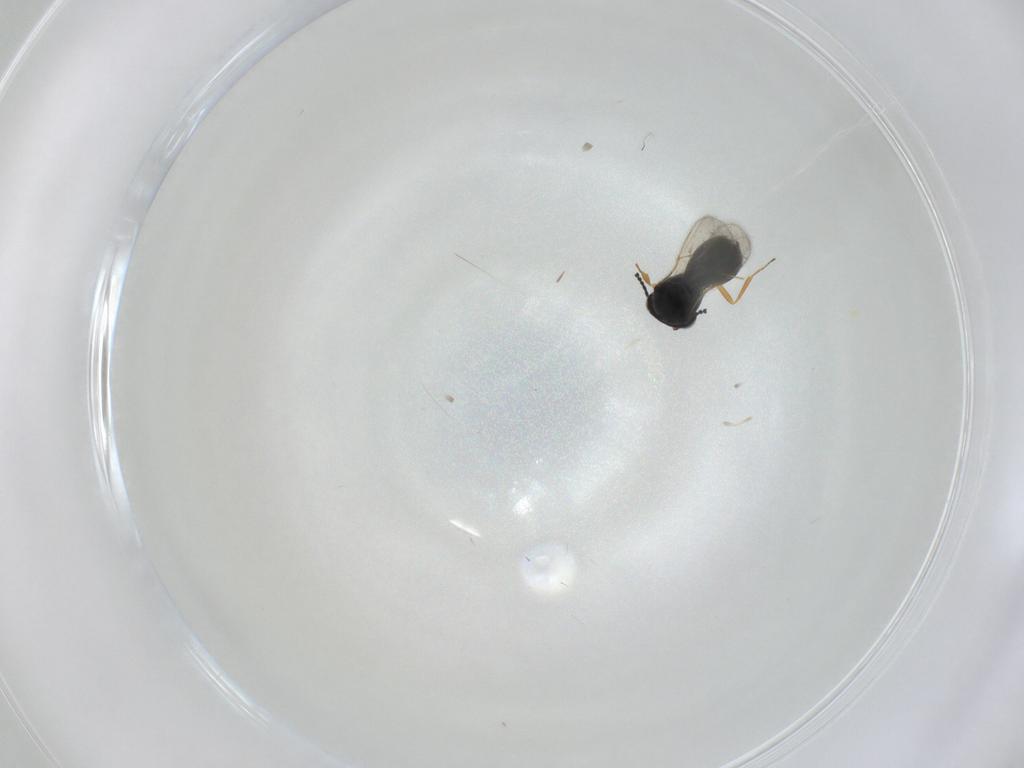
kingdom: Animalia
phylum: Arthropoda
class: Insecta
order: Hymenoptera
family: Scelionidae
